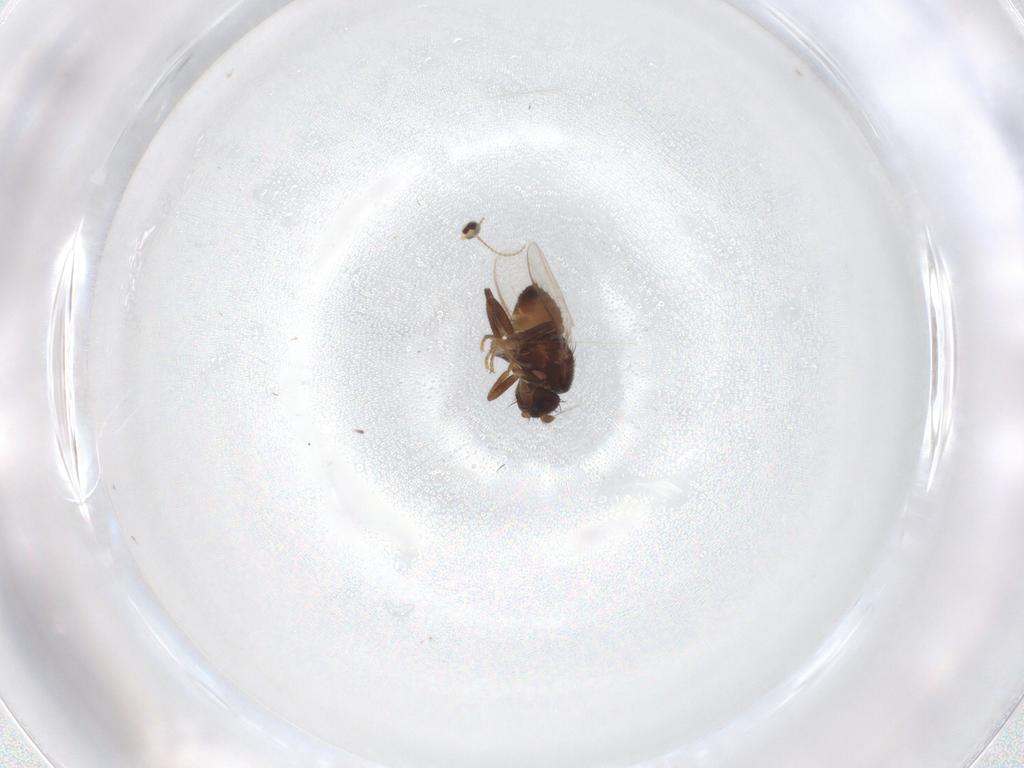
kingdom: Animalia
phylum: Arthropoda
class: Insecta
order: Diptera
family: Sphaeroceridae
